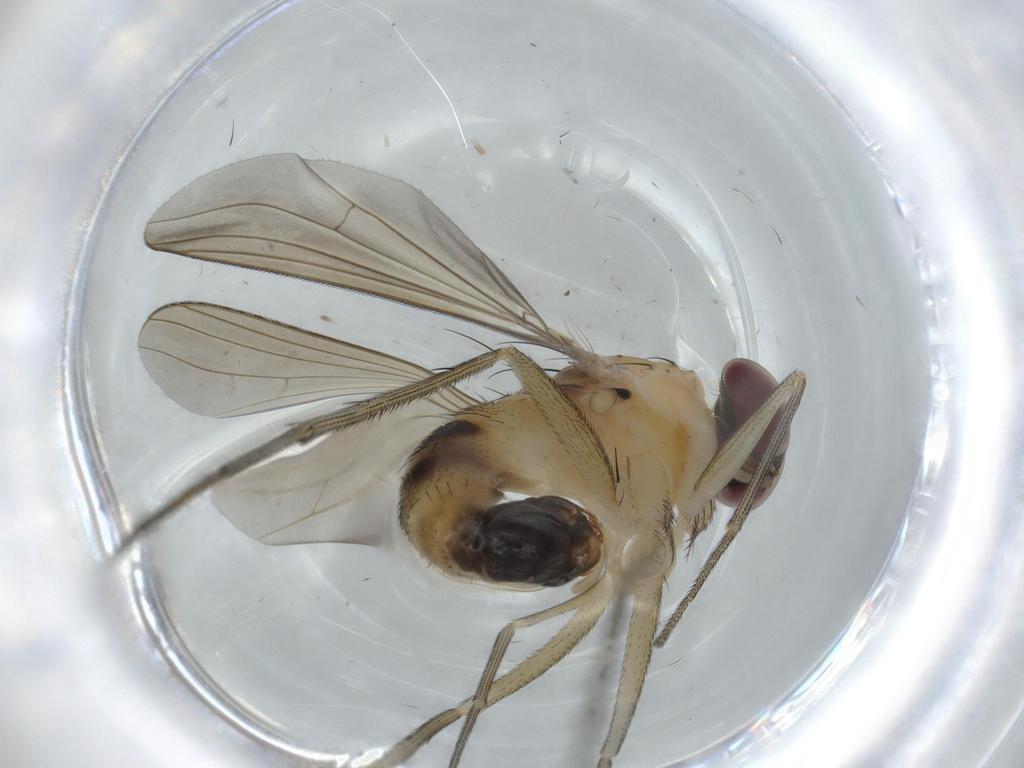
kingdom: Animalia
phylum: Arthropoda
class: Insecta
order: Diptera
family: Dolichopodidae
